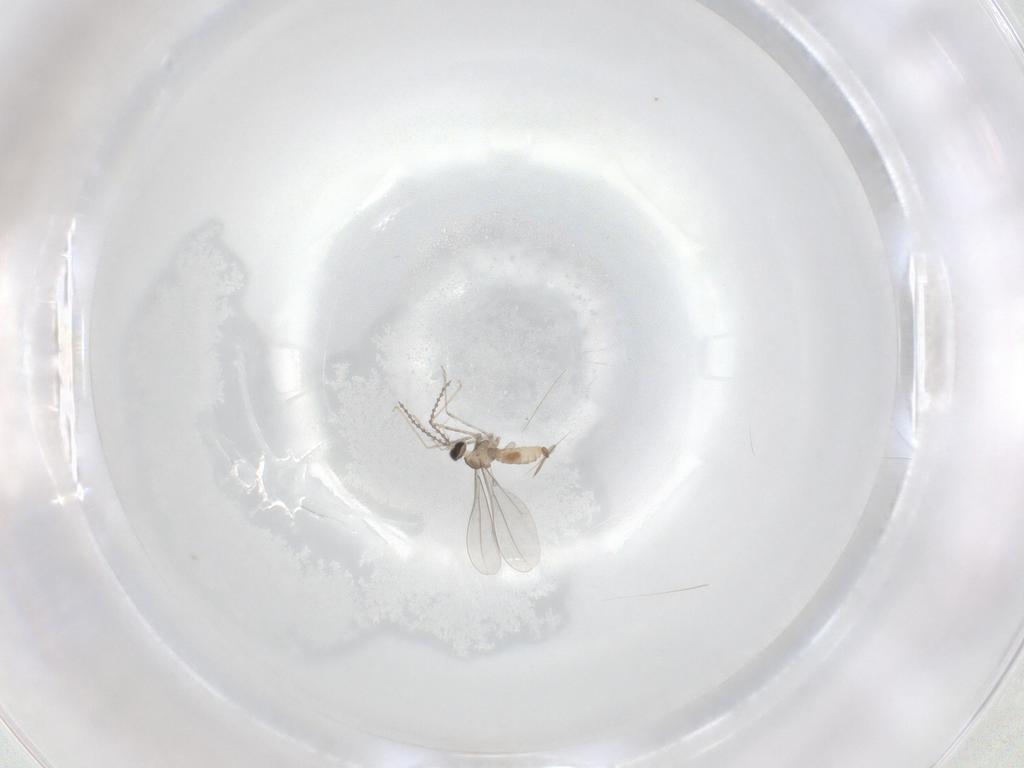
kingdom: Animalia
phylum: Arthropoda
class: Insecta
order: Diptera
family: Cecidomyiidae
